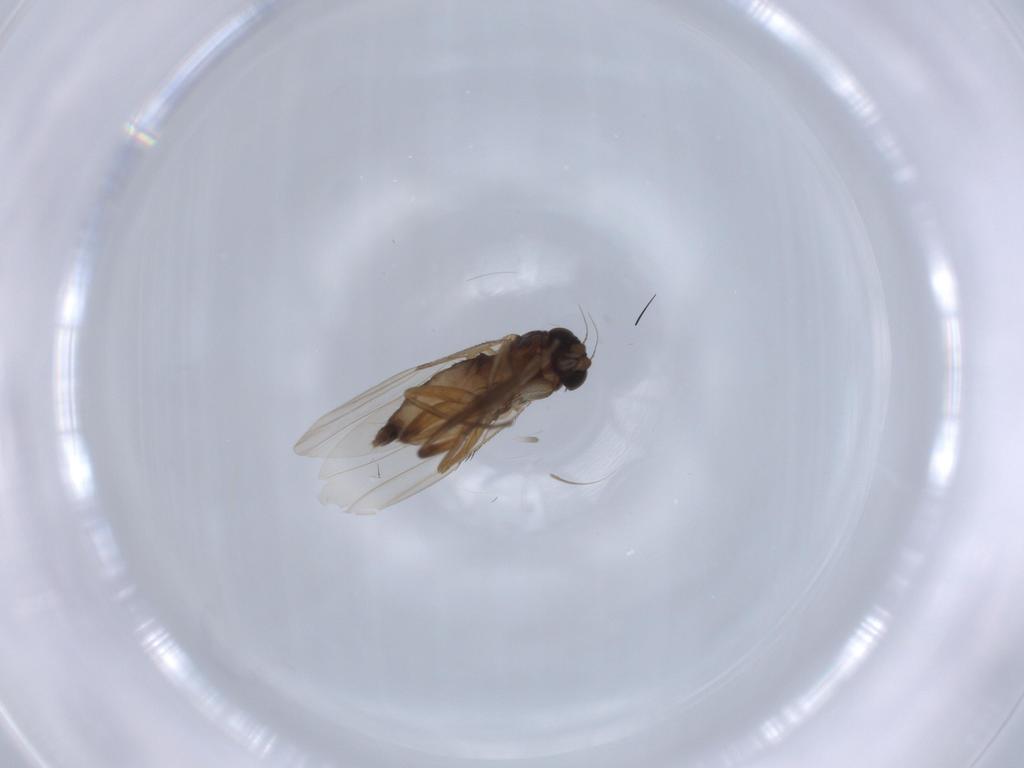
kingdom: Animalia
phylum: Arthropoda
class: Insecta
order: Diptera
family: Phoridae
